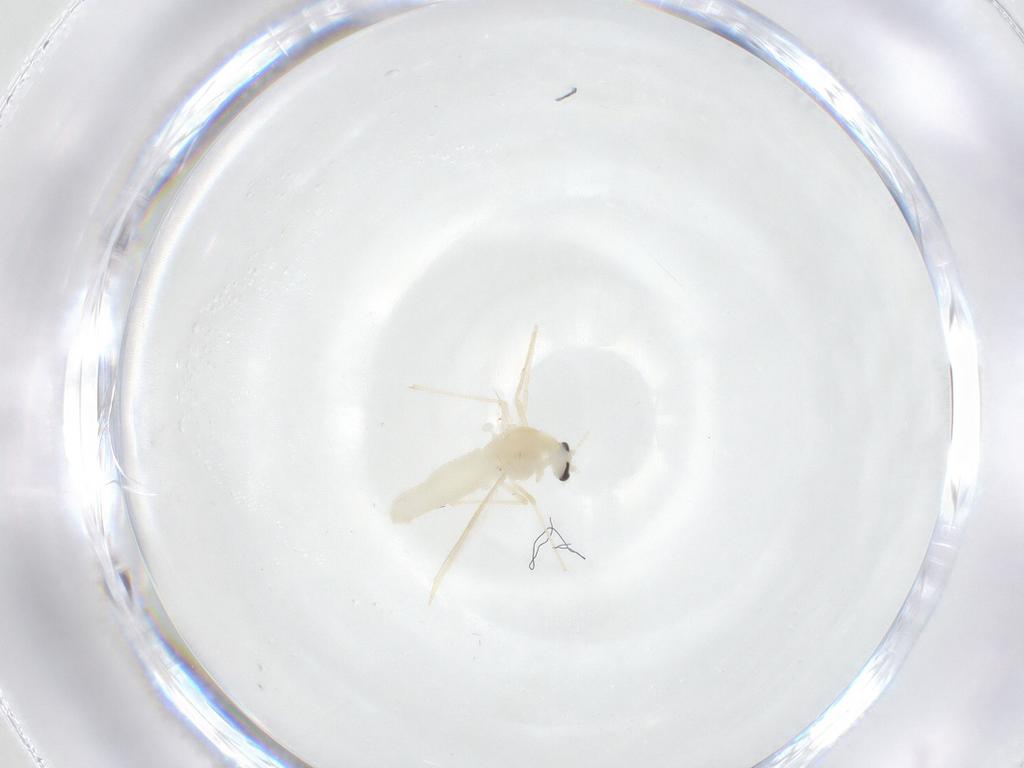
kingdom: Animalia
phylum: Arthropoda
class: Insecta
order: Diptera
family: Chironomidae
